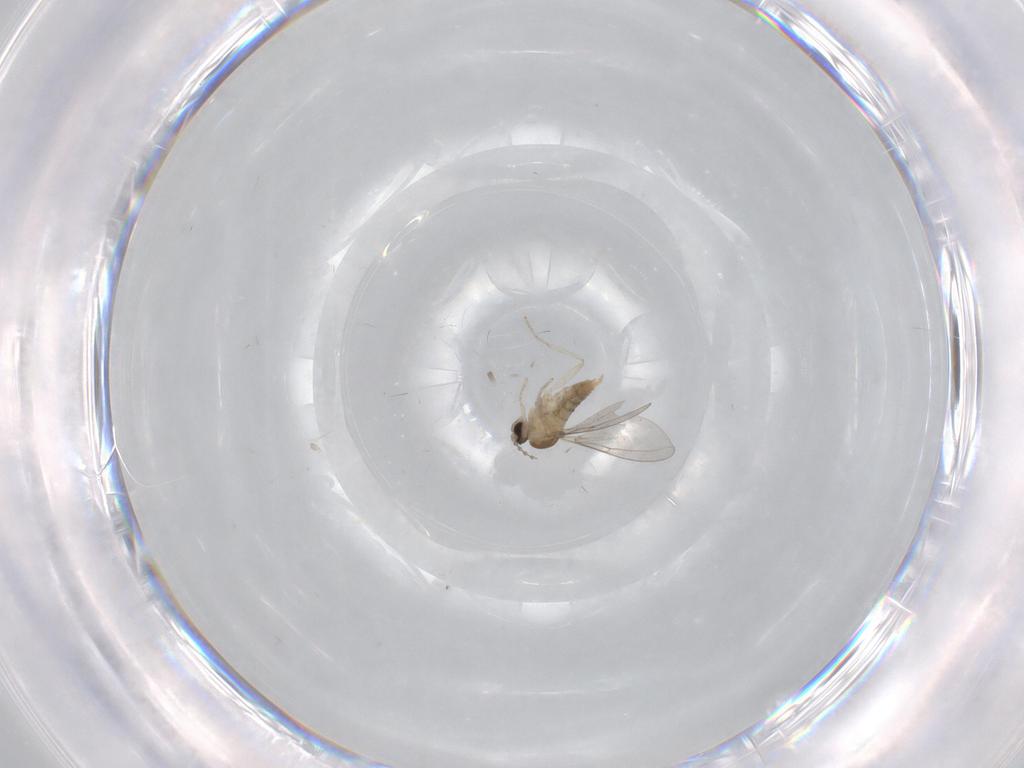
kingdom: Animalia
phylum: Arthropoda
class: Insecta
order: Diptera
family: Cecidomyiidae
